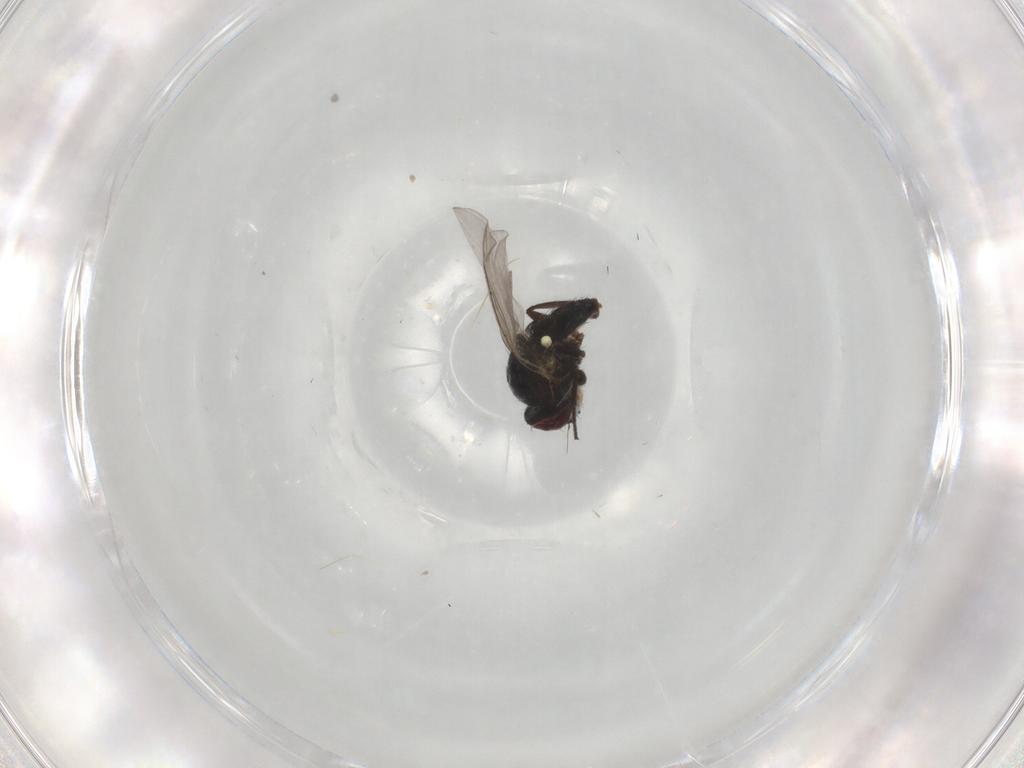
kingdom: Animalia
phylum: Arthropoda
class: Insecta
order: Diptera
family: Agromyzidae
